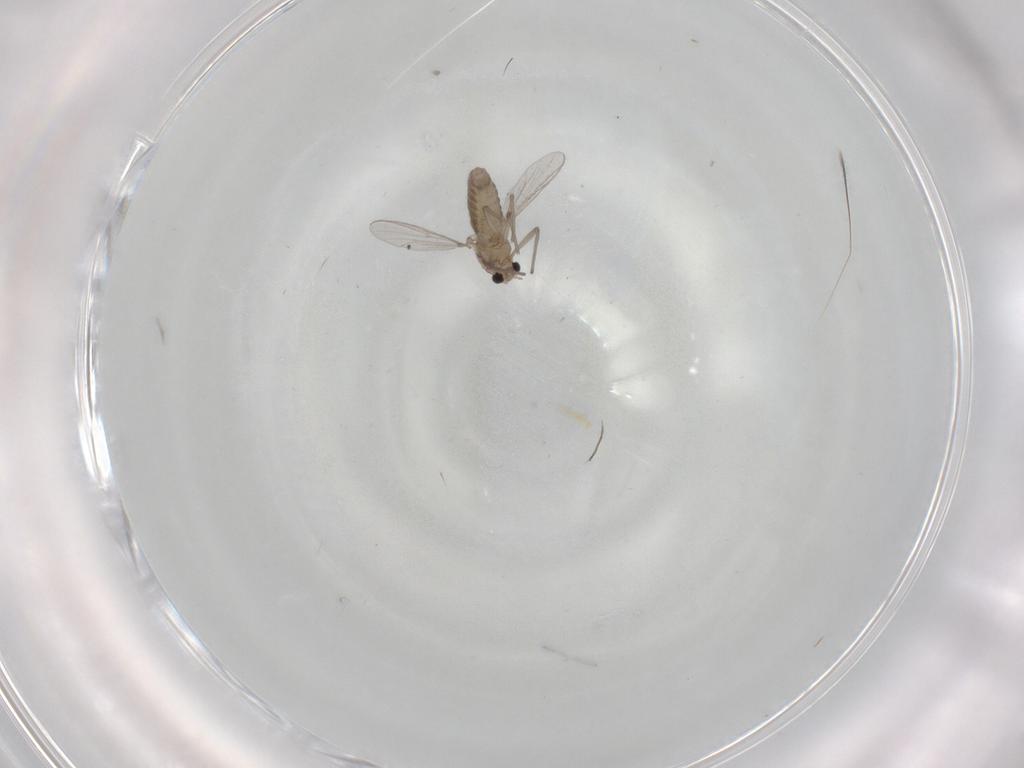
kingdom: Animalia
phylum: Arthropoda
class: Insecta
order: Diptera
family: Chironomidae
